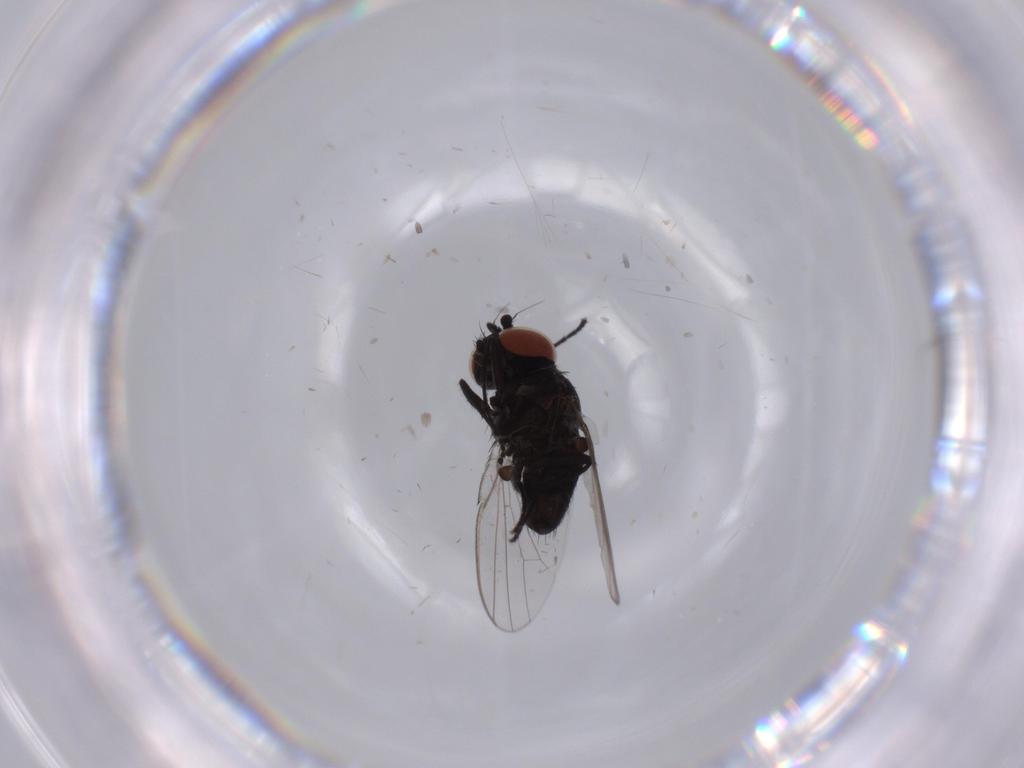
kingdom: Animalia
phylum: Arthropoda
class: Insecta
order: Diptera
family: Milichiidae
